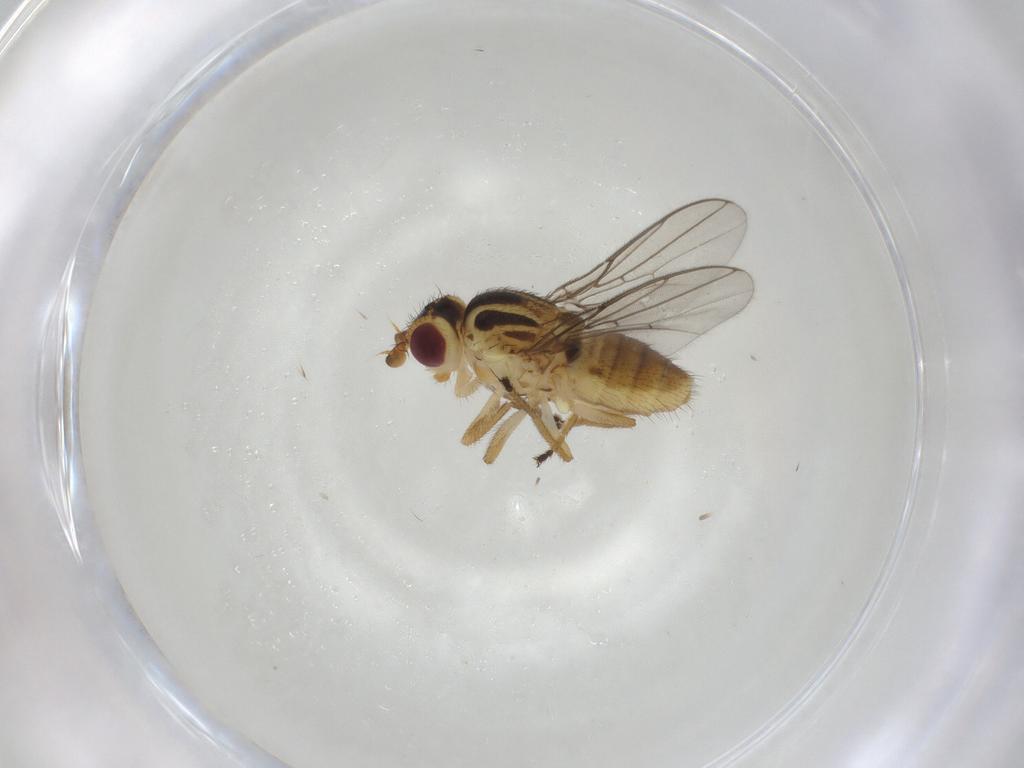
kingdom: Animalia
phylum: Arthropoda
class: Insecta
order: Diptera
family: Chloropidae
